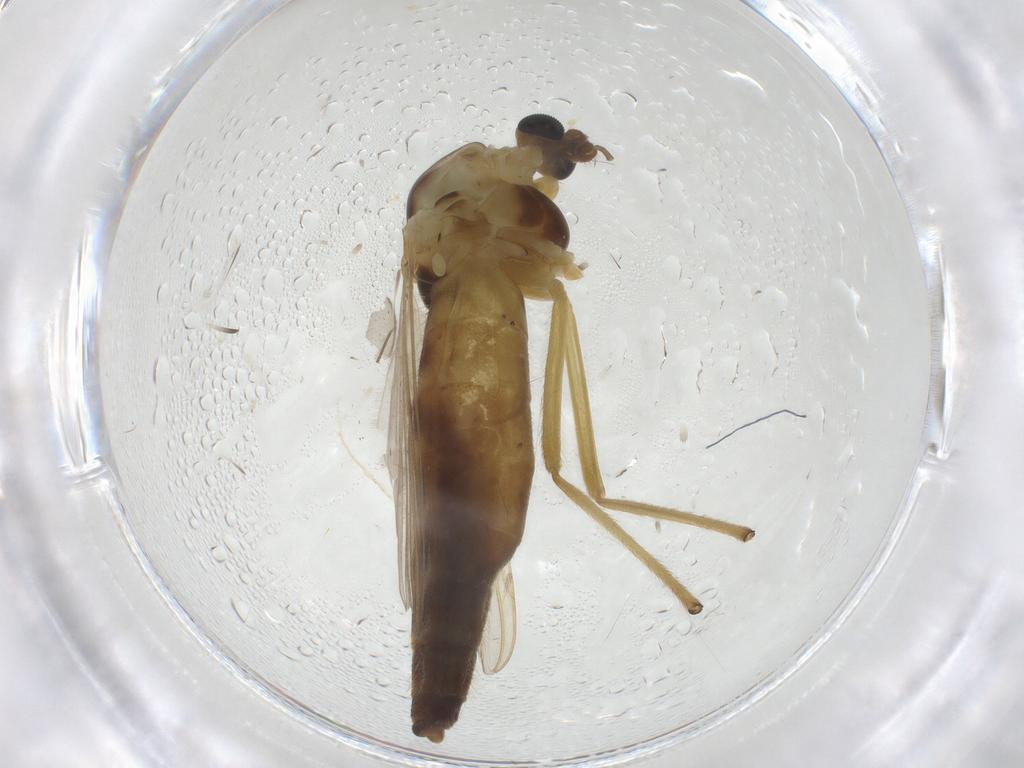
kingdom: Animalia
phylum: Arthropoda
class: Insecta
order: Diptera
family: Chironomidae
